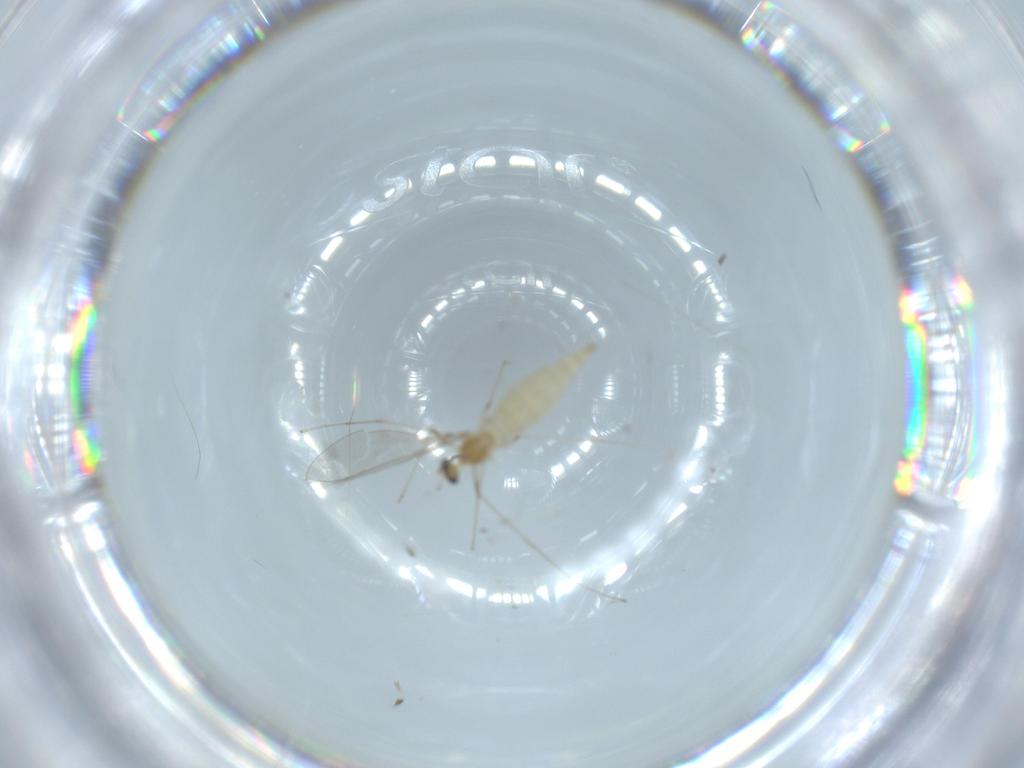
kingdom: Animalia
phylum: Arthropoda
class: Insecta
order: Diptera
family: Cecidomyiidae
